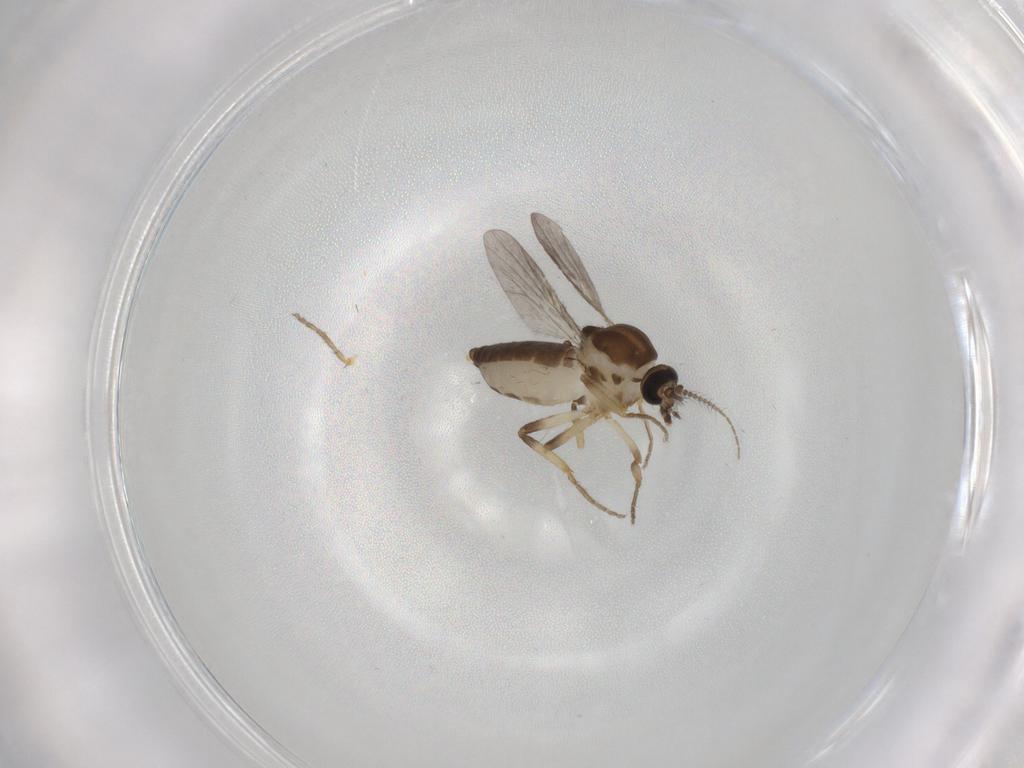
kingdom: Animalia
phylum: Arthropoda
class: Insecta
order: Diptera
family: Ceratopogonidae
